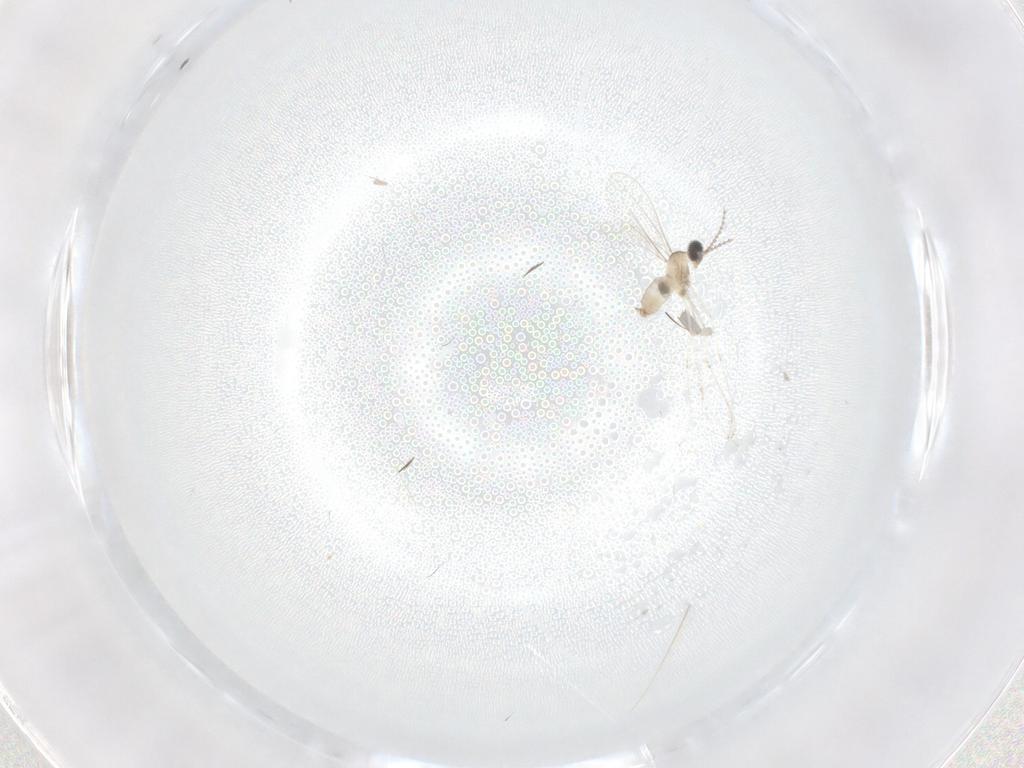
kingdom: Animalia
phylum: Arthropoda
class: Insecta
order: Diptera
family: Cecidomyiidae
